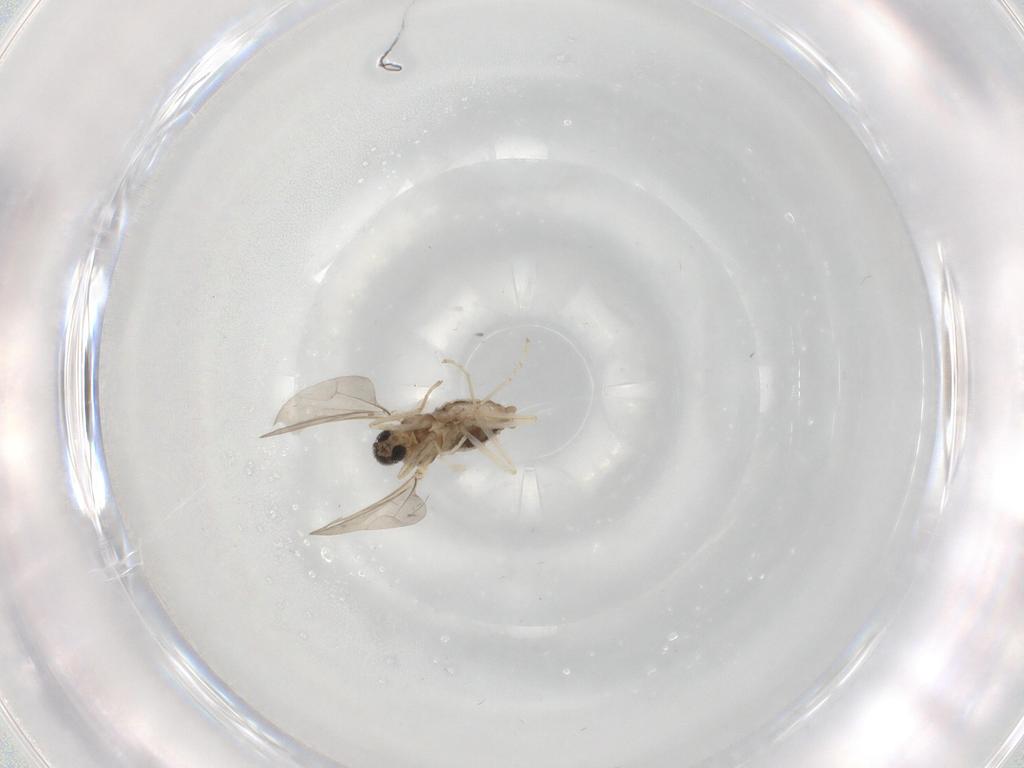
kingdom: Animalia
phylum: Arthropoda
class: Insecta
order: Diptera
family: Cecidomyiidae
